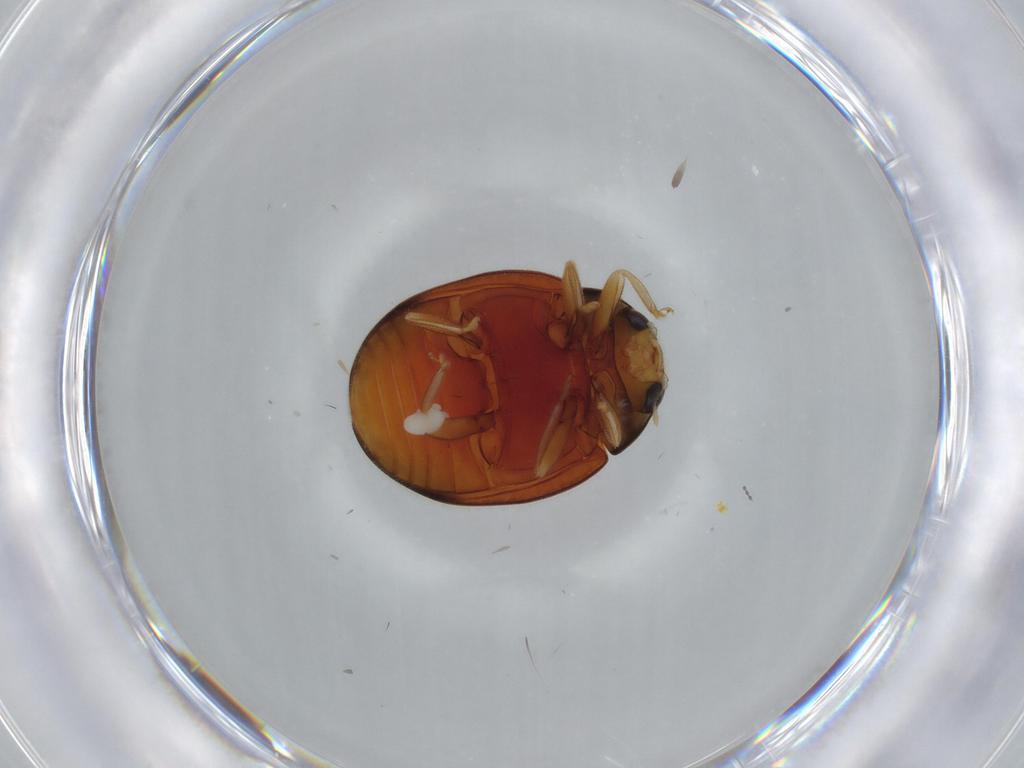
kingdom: Animalia
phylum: Arthropoda
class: Insecta
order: Coleoptera
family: Coccinellidae
